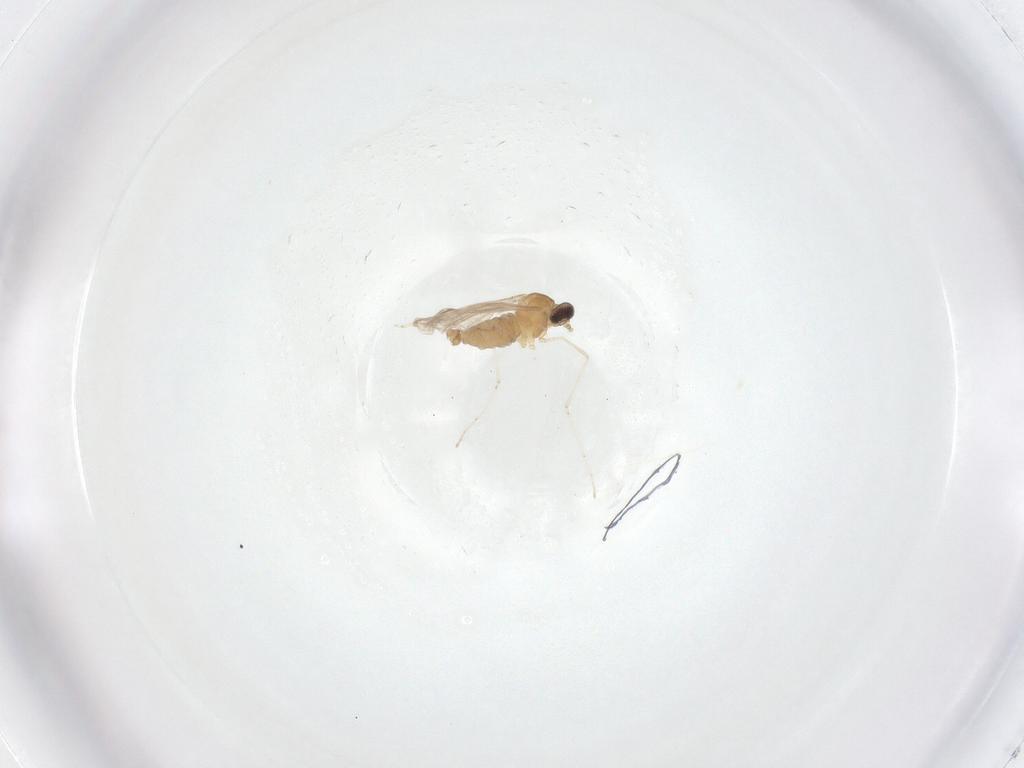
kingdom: Animalia
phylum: Arthropoda
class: Insecta
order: Diptera
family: Cecidomyiidae
